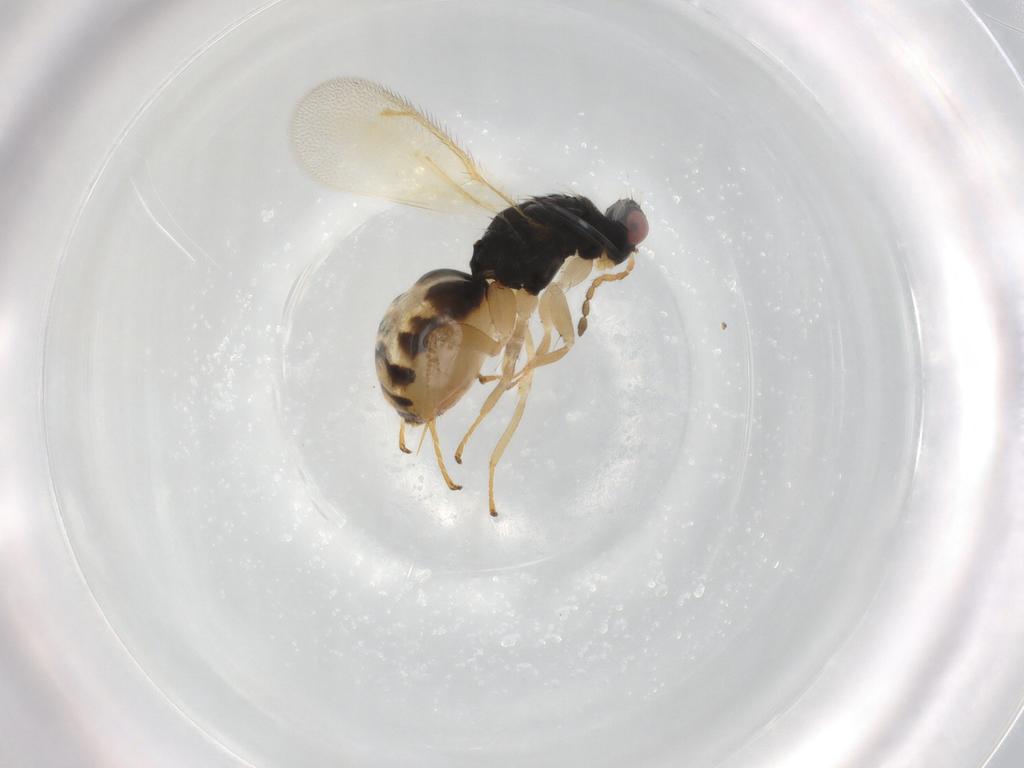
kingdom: Animalia
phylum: Arthropoda
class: Insecta
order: Hymenoptera
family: Eulophidae
